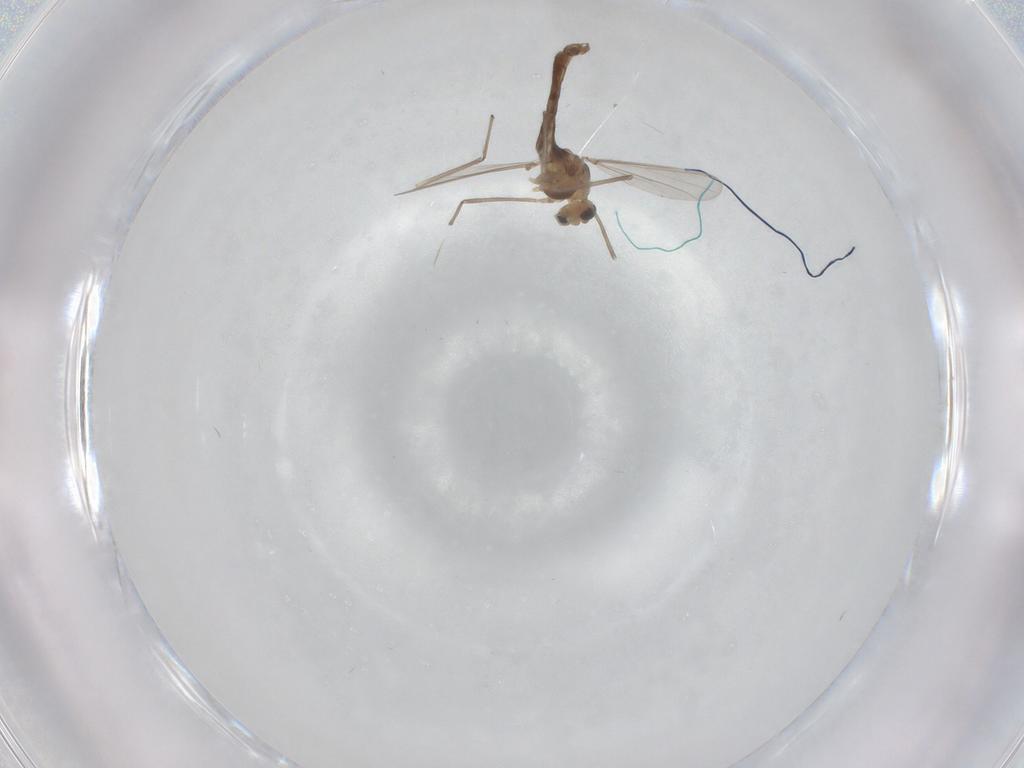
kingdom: Animalia
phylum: Arthropoda
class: Insecta
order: Diptera
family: Chironomidae
